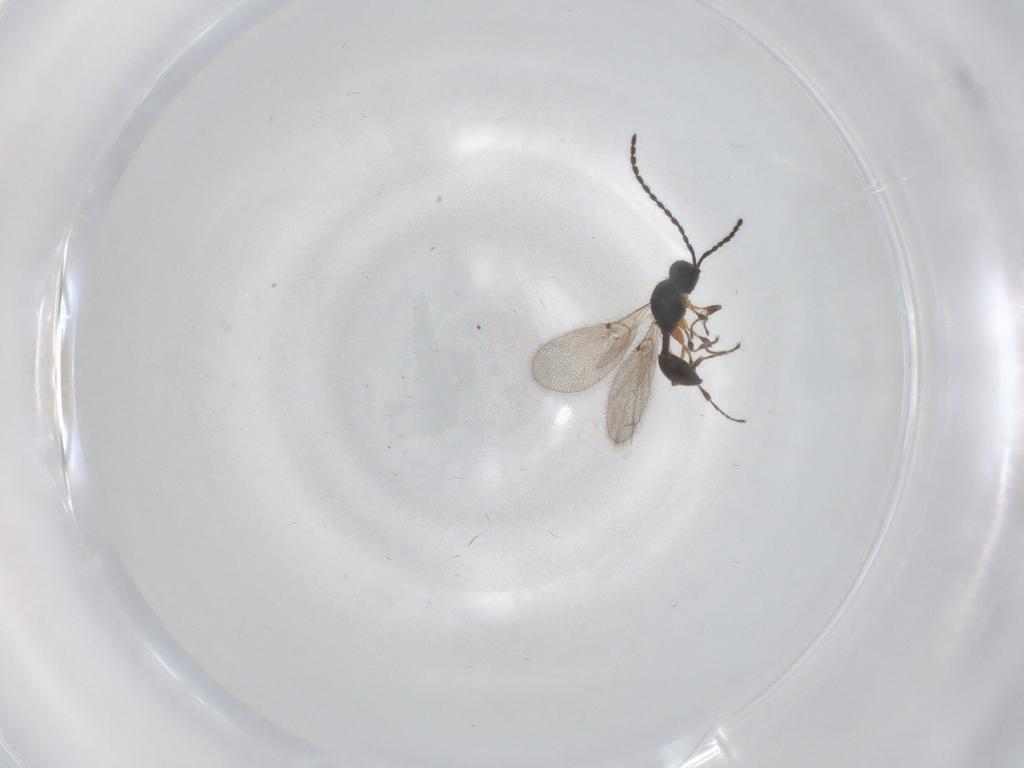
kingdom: Animalia
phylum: Arthropoda
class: Insecta
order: Hymenoptera
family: Diapriidae
